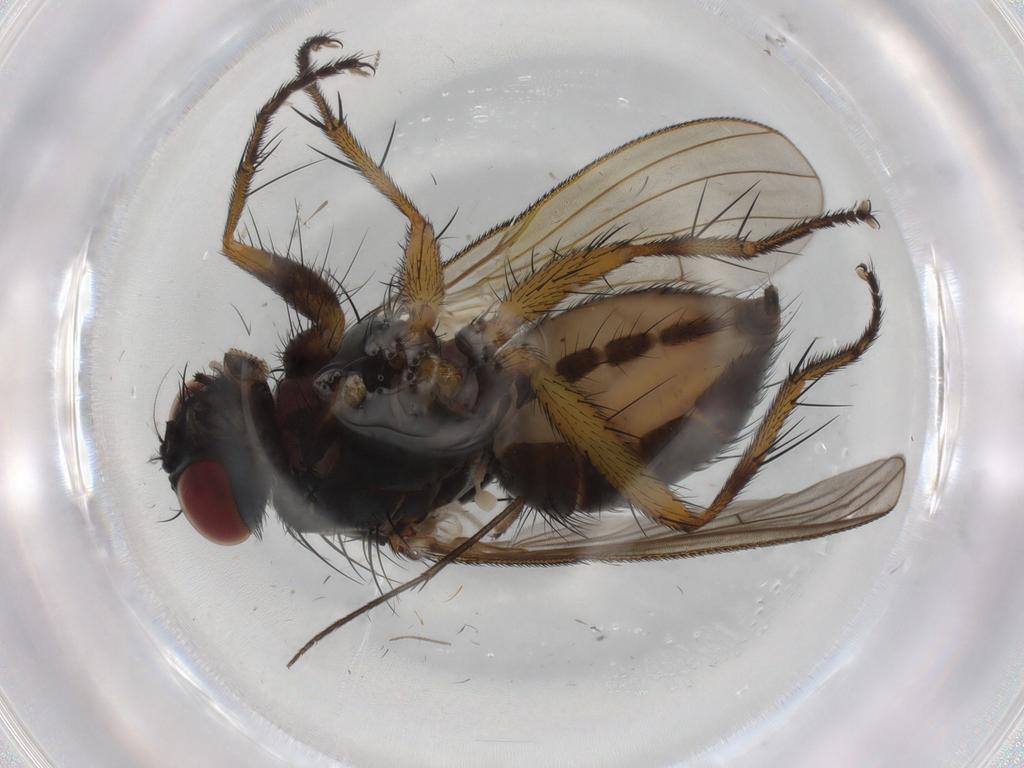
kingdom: Animalia
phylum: Arthropoda
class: Insecta
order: Diptera
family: Muscidae
